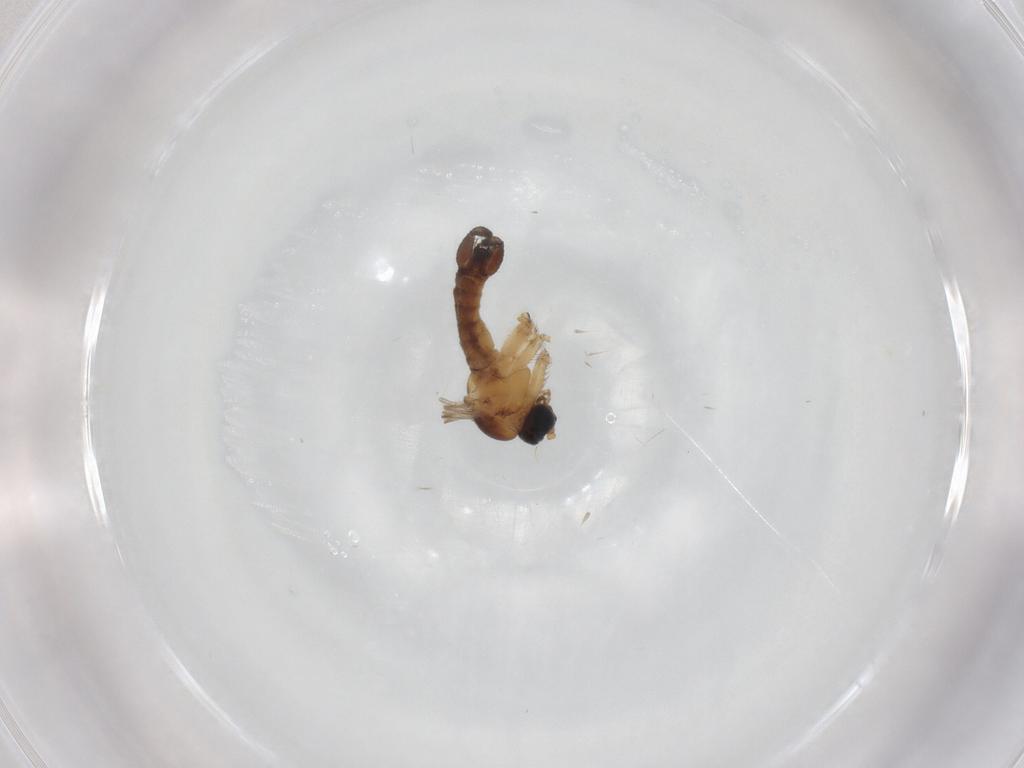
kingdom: Animalia
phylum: Arthropoda
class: Insecta
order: Diptera
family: Sciaridae
